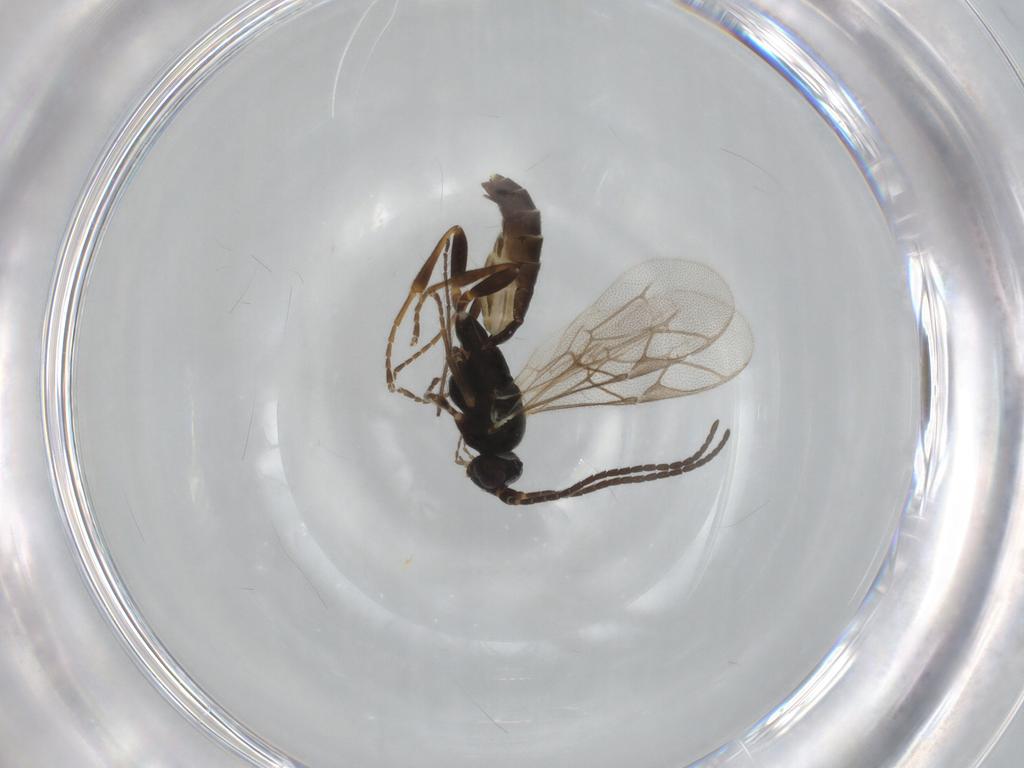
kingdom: Animalia
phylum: Arthropoda
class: Insecta
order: Hymenoptera
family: Ichneumonidae
